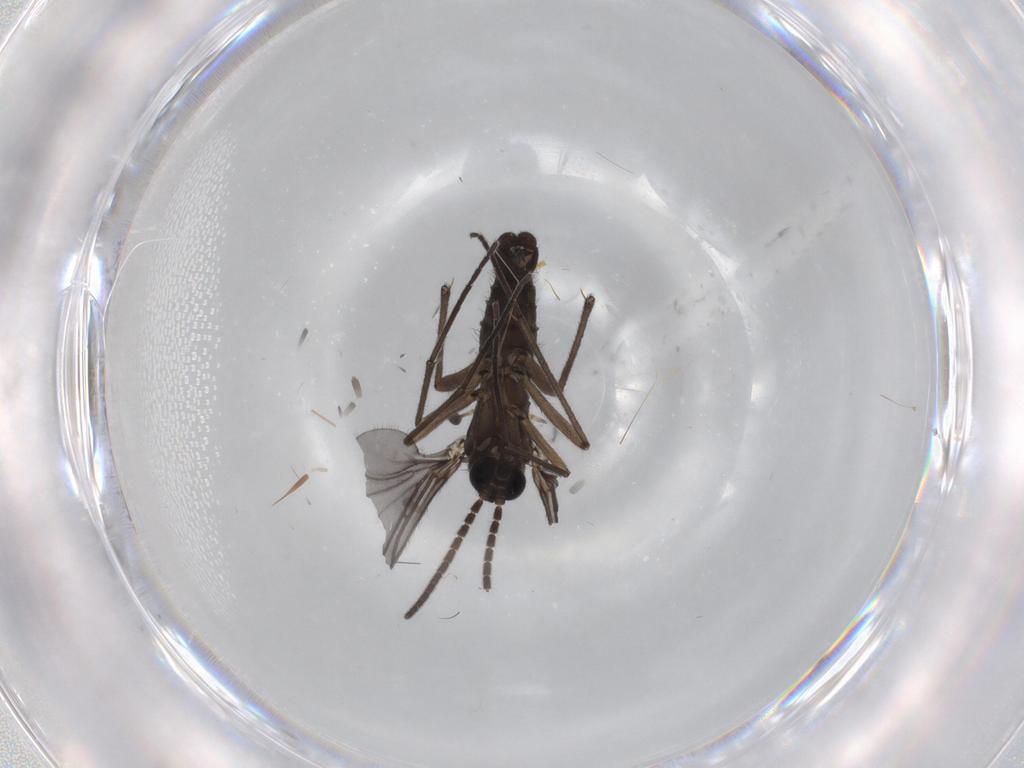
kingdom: Animalia
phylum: Arthropoda
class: Insecta
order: Diptera
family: Sciaridae
